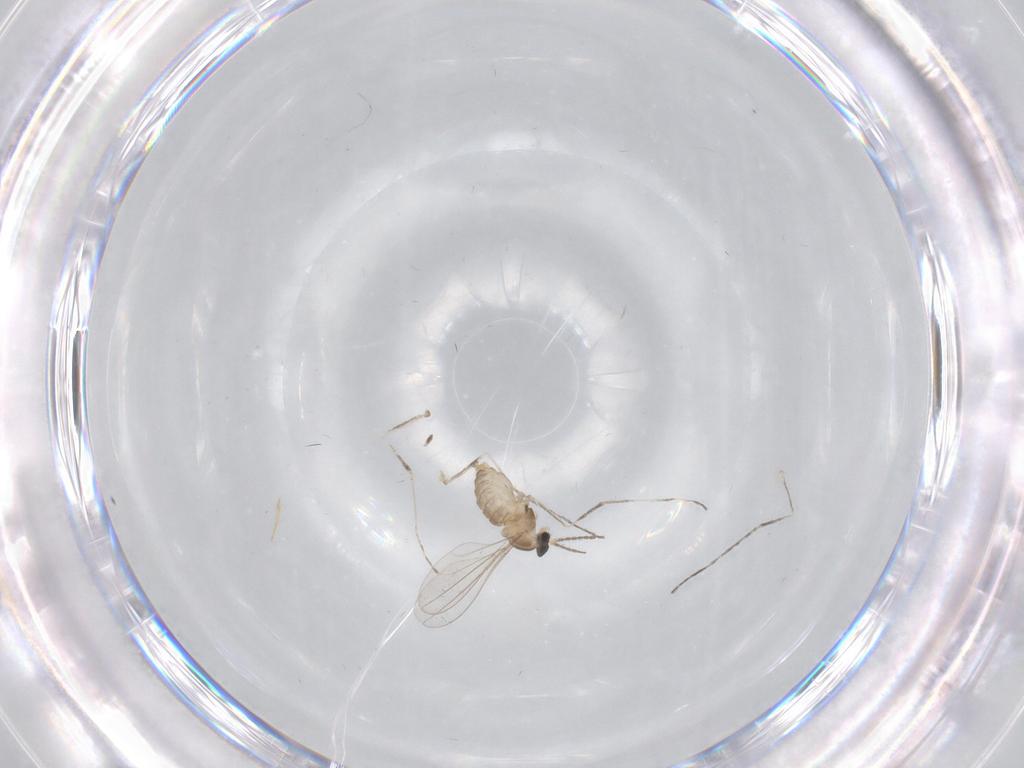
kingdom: Animalia
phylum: Arthropoda
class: Insecta
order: Diptera
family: Cecidomyiidae
